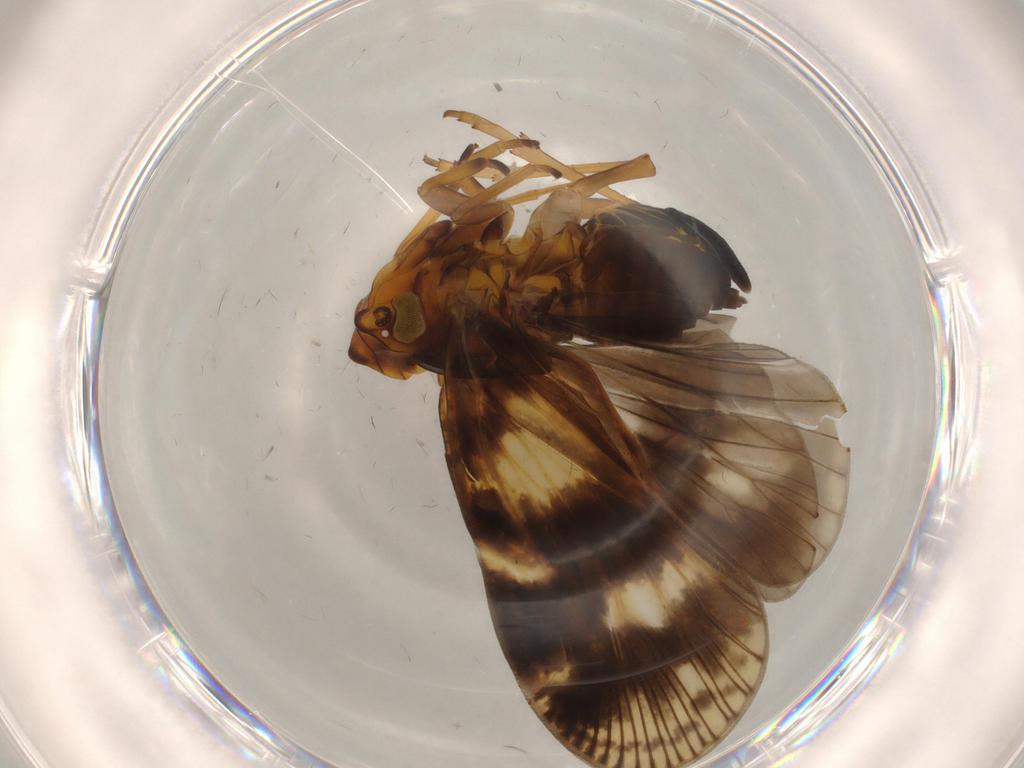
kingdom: Animalia
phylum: Arthropoda
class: Insecta
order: Hemiptera
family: Cixiidae
